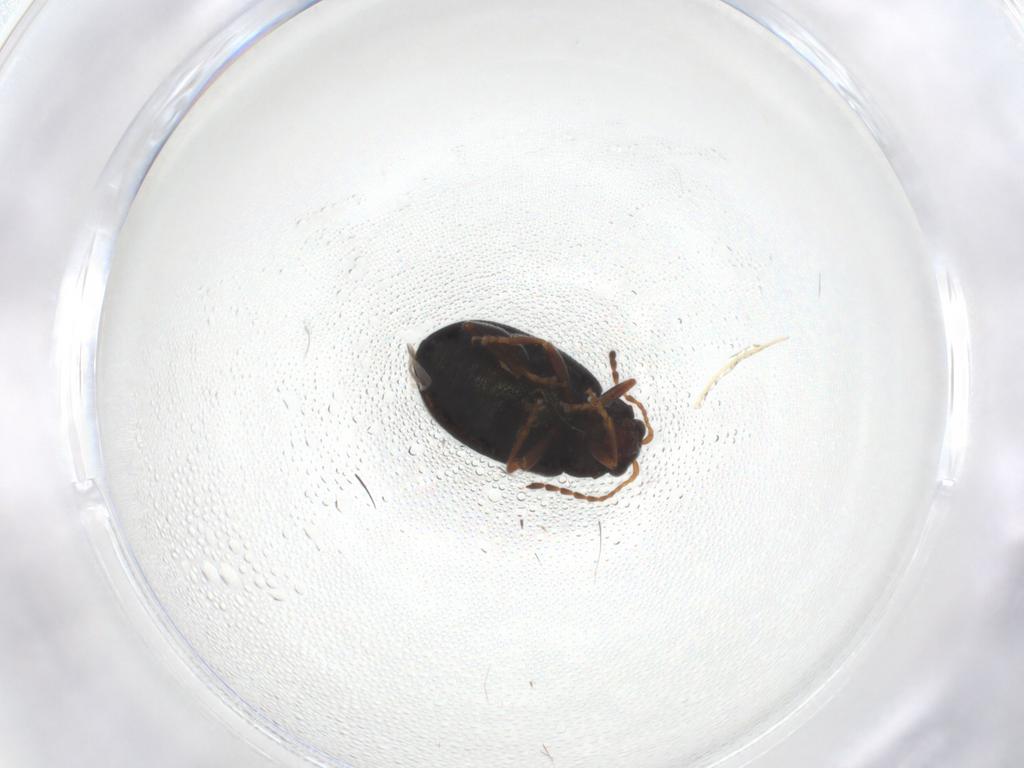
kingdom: Animalia
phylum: Arthropoda
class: Insecta
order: Coleoptera
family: Chrysomelidae
